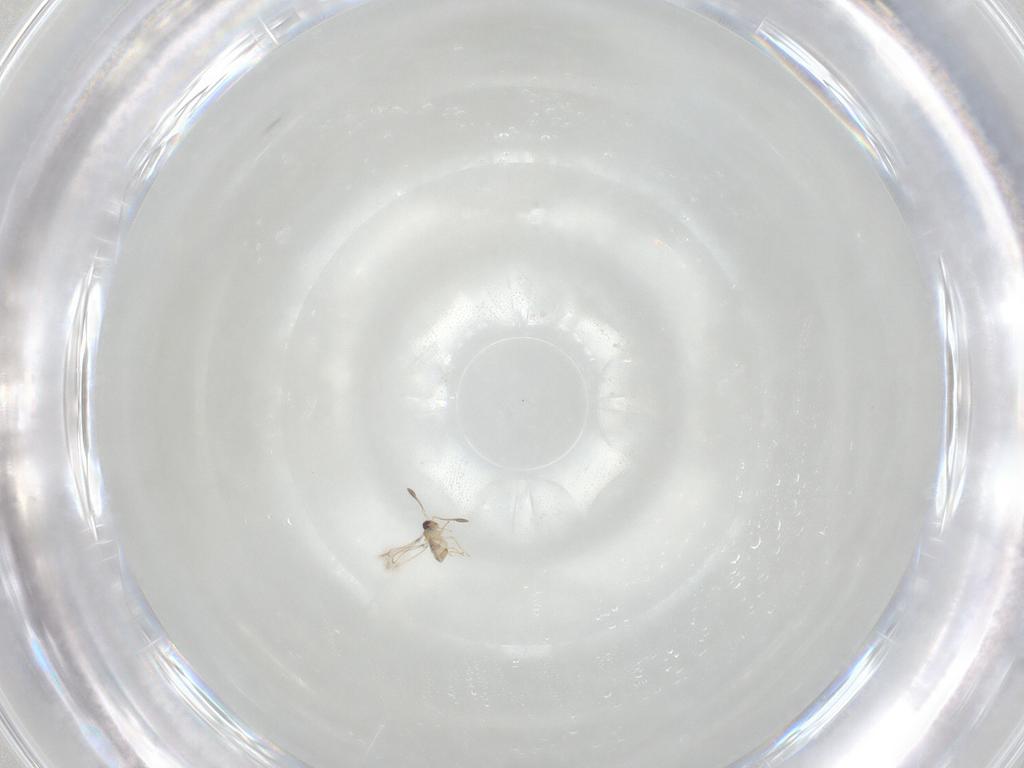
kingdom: Animalia
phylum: Arthropoda
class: Insecta
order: Hymenoptera
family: Mymaridae
